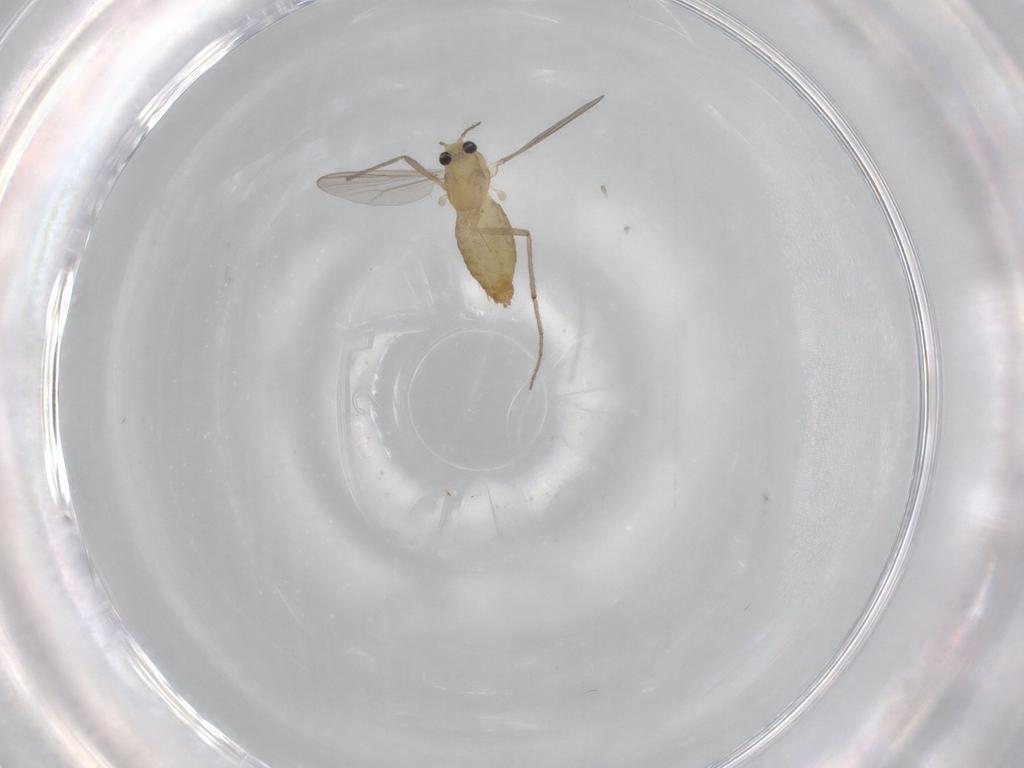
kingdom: Animalia
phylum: Arthropoda
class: Insecta
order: Diptera
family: Chironomidae
